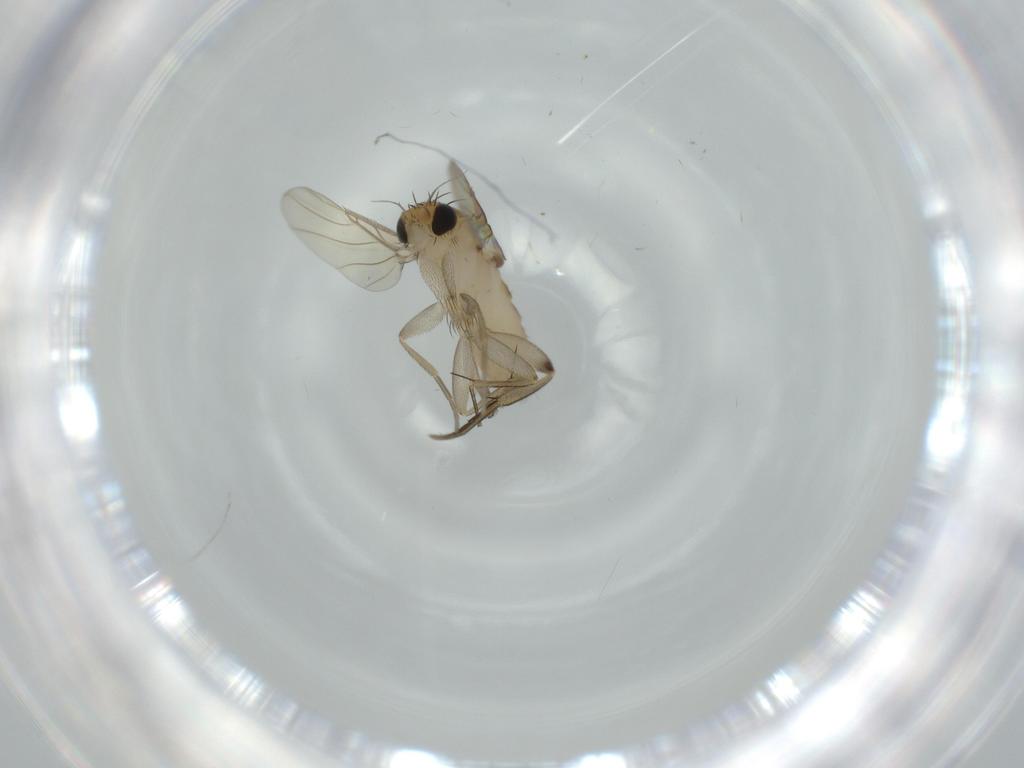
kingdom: Animalia
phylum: Arthropoda
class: Insecta
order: Diptera
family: Phoridae
